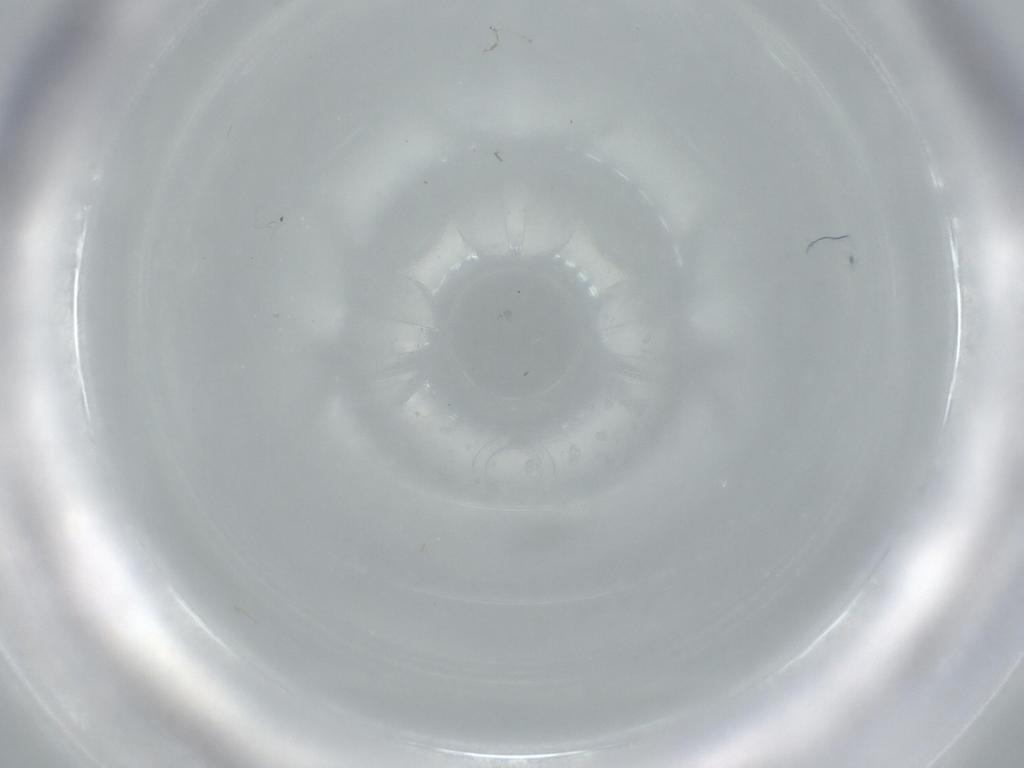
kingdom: Animalia
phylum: Arthropoda
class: Insecta
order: Diptera
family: Cecidomyiidae
